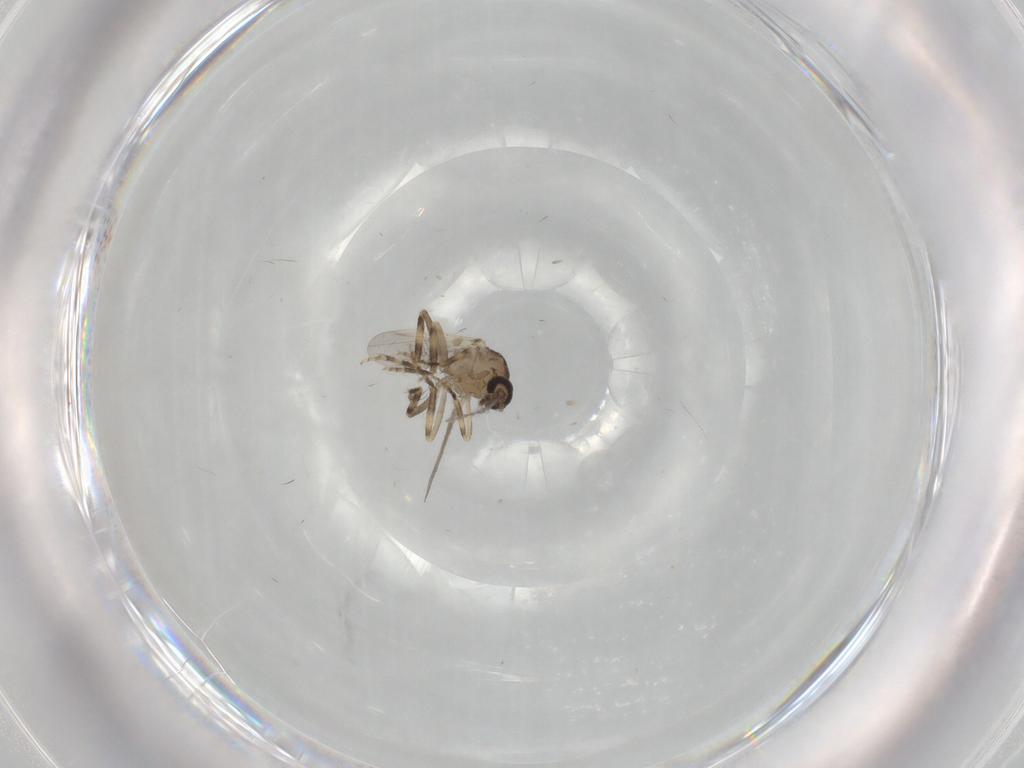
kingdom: Animalia
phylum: Arthropoda
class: Insecta
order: Diptera
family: Ceratopogonidae
